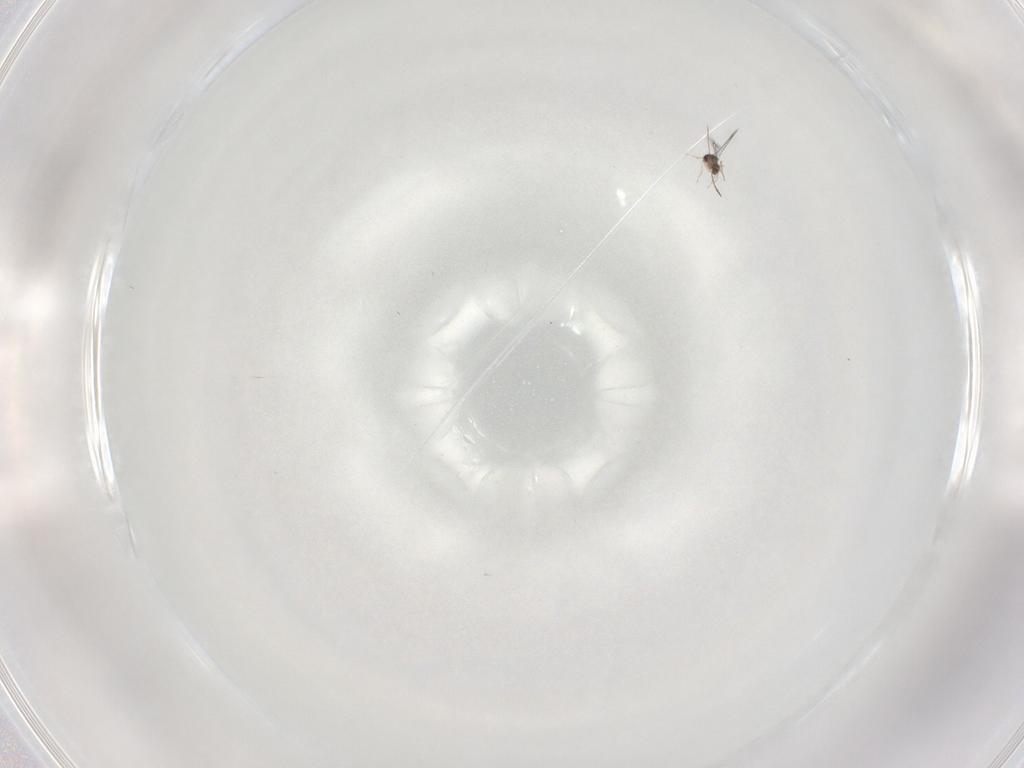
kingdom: Animalia
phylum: Arthropoda
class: Insecta
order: Hymenoptera
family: Mymaridae
